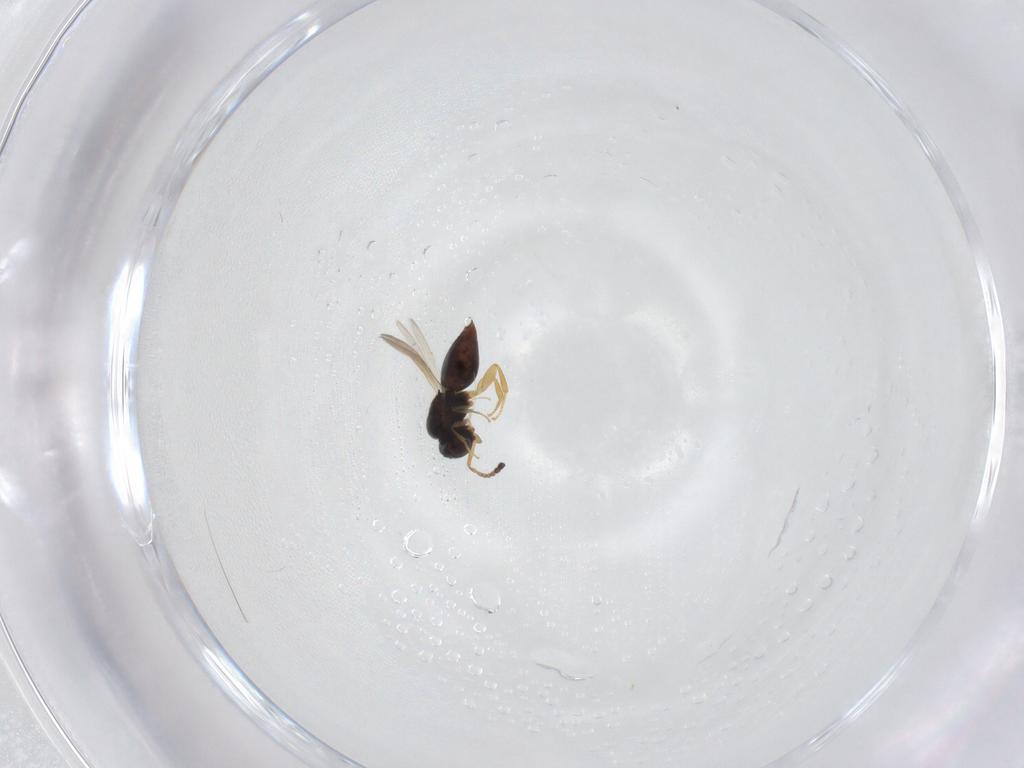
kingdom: Animalia
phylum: Arthropoda
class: Insecta
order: Hymenoptera
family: Ceraphronidae
